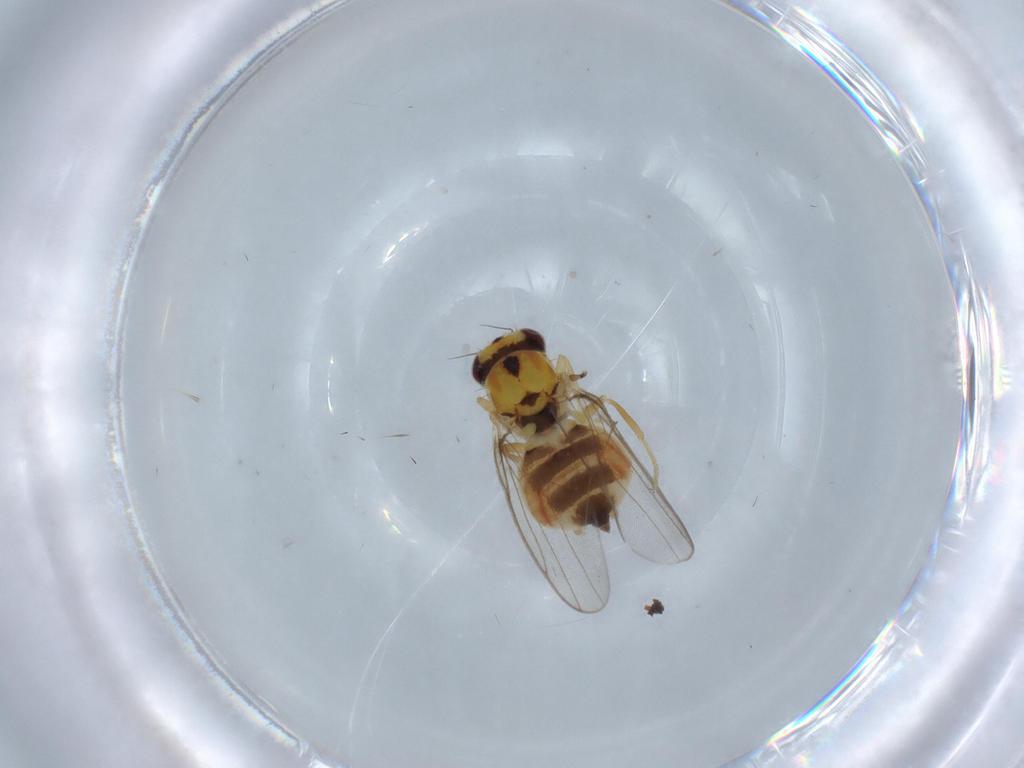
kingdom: Animalia
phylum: Arthropoda
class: Insecta
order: Diptera
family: Chloropidae
